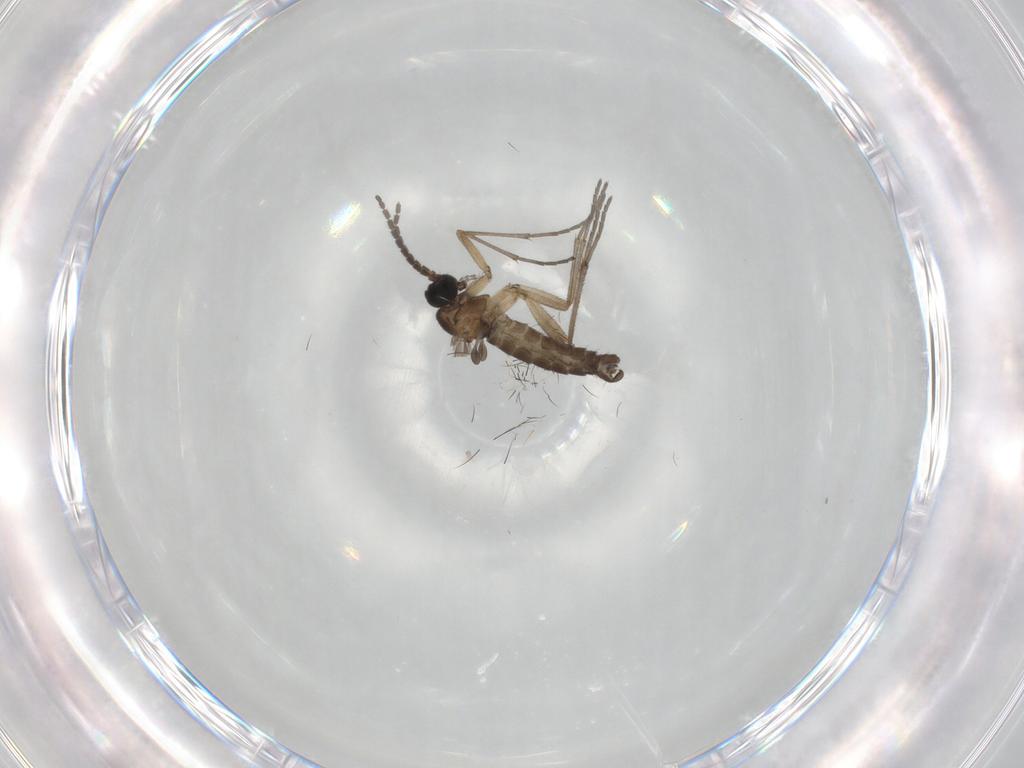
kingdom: Animalia
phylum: Arthropoda
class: Insecta
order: Diptera
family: Sciaridae
